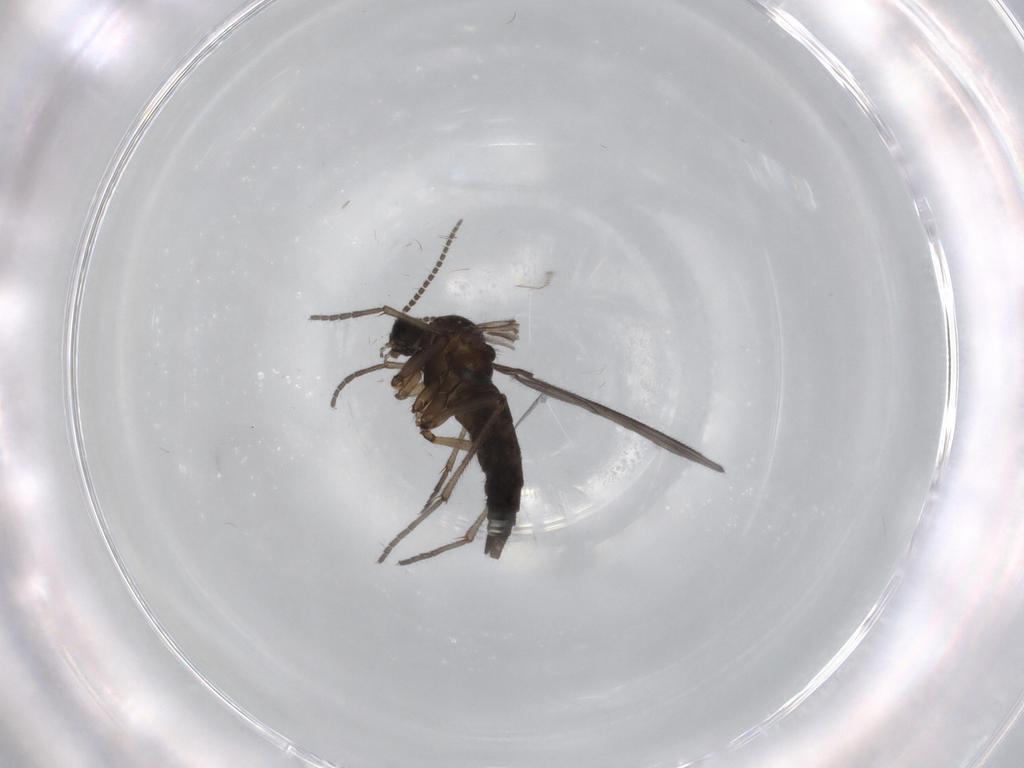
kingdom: Animalia
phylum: Arthropoda
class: Insecta
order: Diptera
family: Sciaridae
